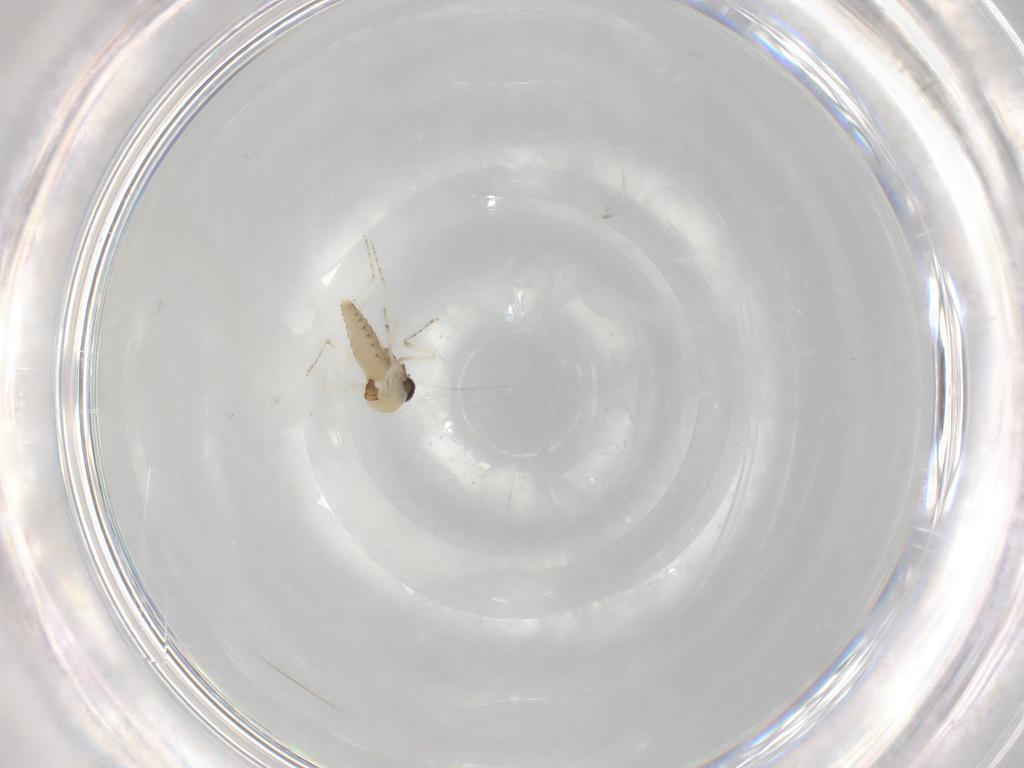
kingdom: Animalia
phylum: Arthropoda
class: Insecta
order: Diptera
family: Ceratopogonidae
